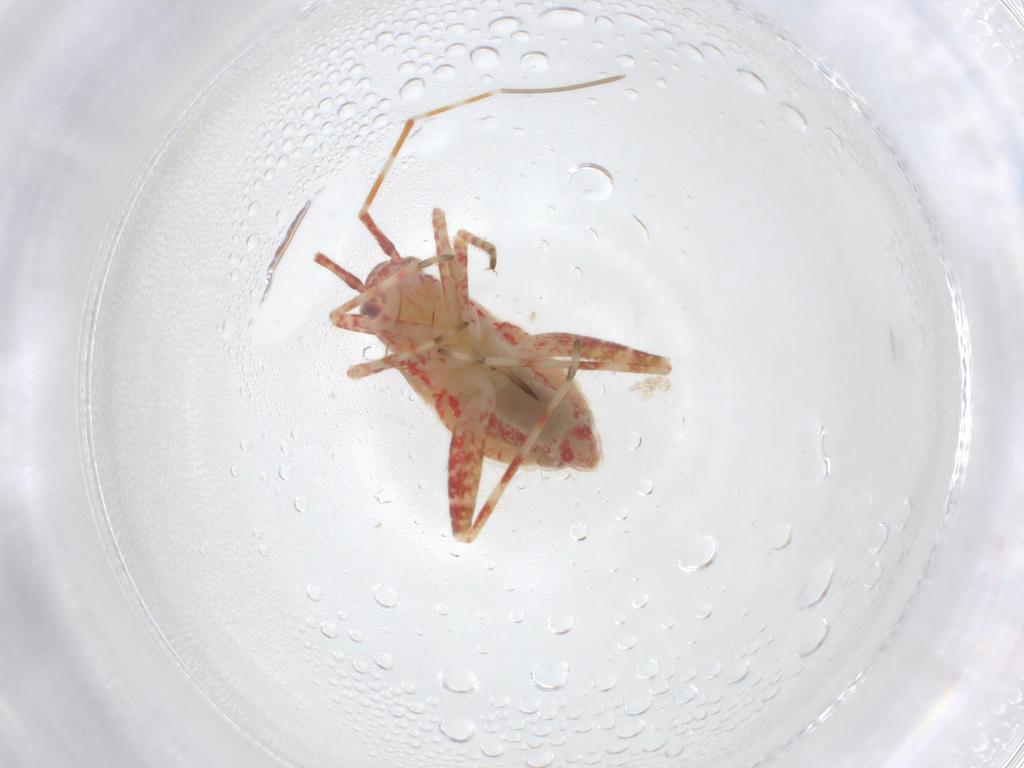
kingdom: Animalia
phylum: Arthropoda
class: Insecta
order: Hemiptera
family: Miridae
